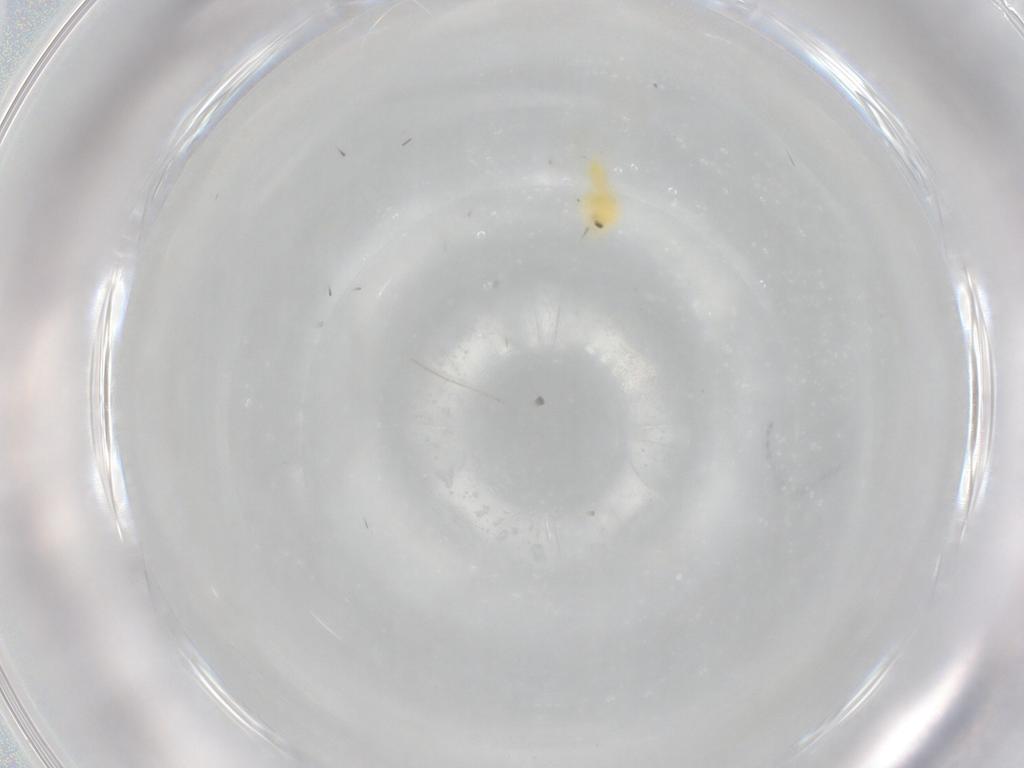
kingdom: Animalia
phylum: Arthropoda
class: Insecta
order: Hemiptera
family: Aleyrodidae
